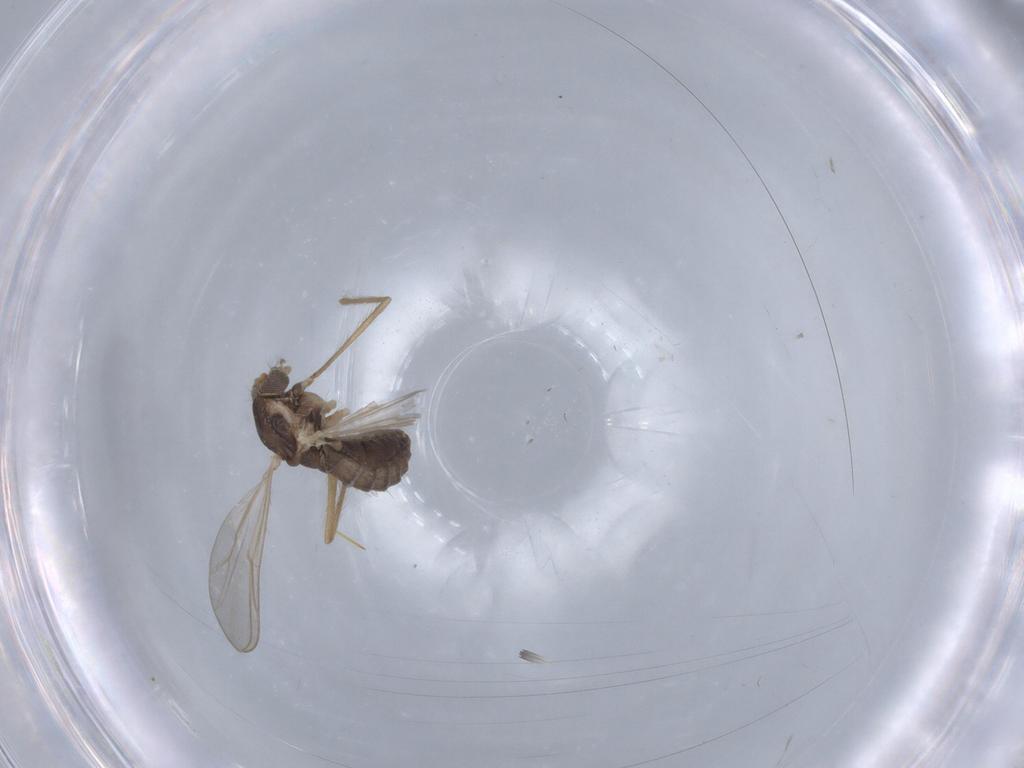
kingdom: Animalia
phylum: Arthropoda
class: Insecta
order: Diptera
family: Chironomidae
